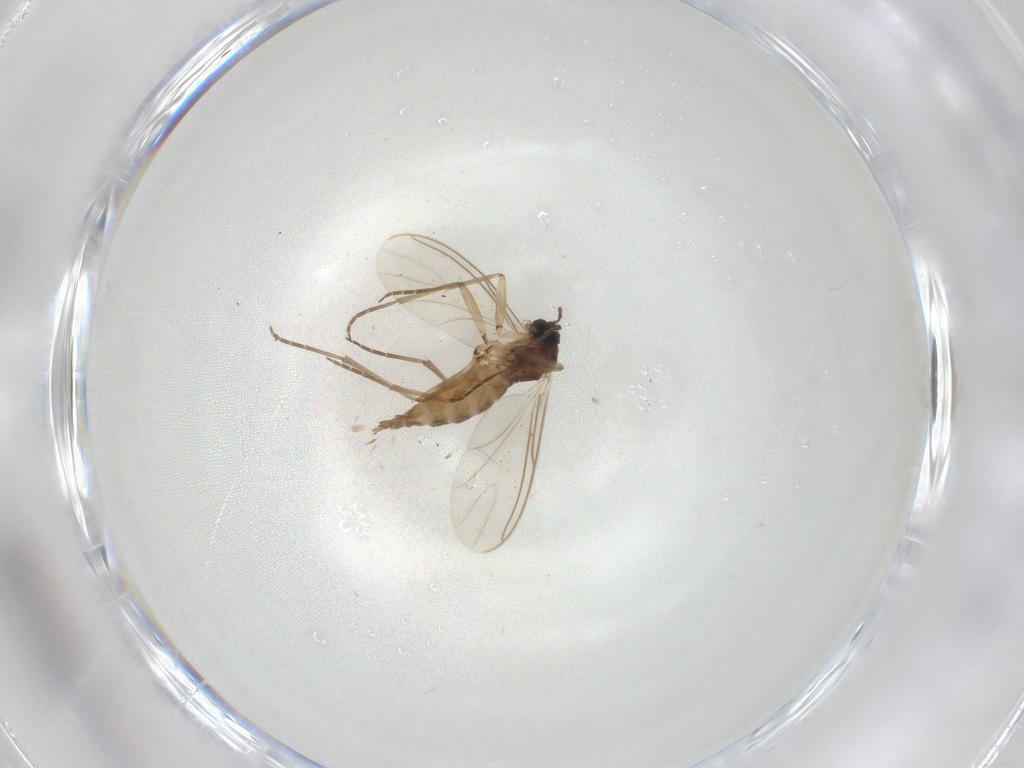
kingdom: Animalia
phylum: Arthropoda
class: Insecta
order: Diptera
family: Sciaridae
